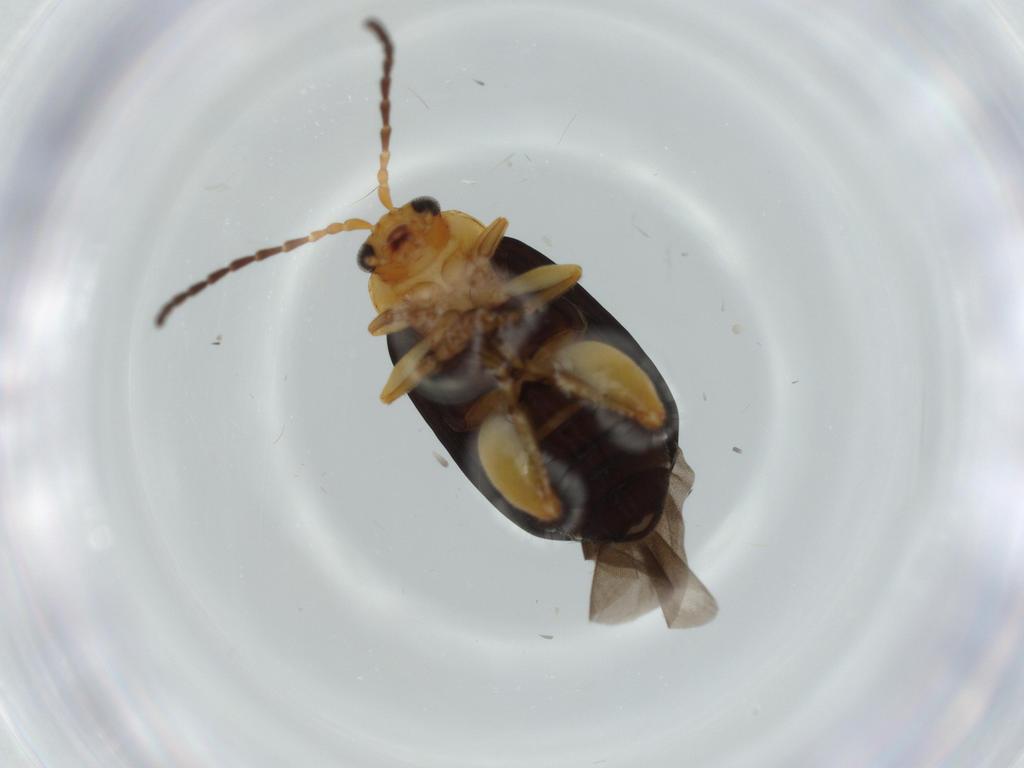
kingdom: Animalia
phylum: Arthropoda
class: Insecta
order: Coleoptera
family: Chrysomelidae
